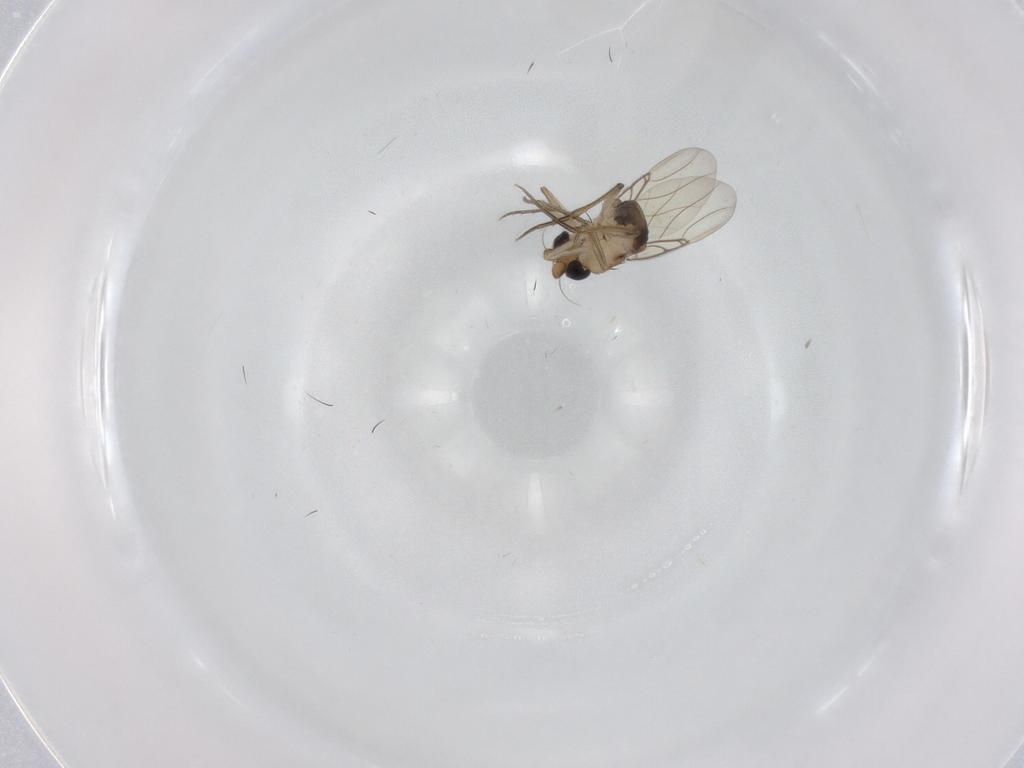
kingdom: Animalia
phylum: Arthropoda
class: Insecta
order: Diptera
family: Phoridae
